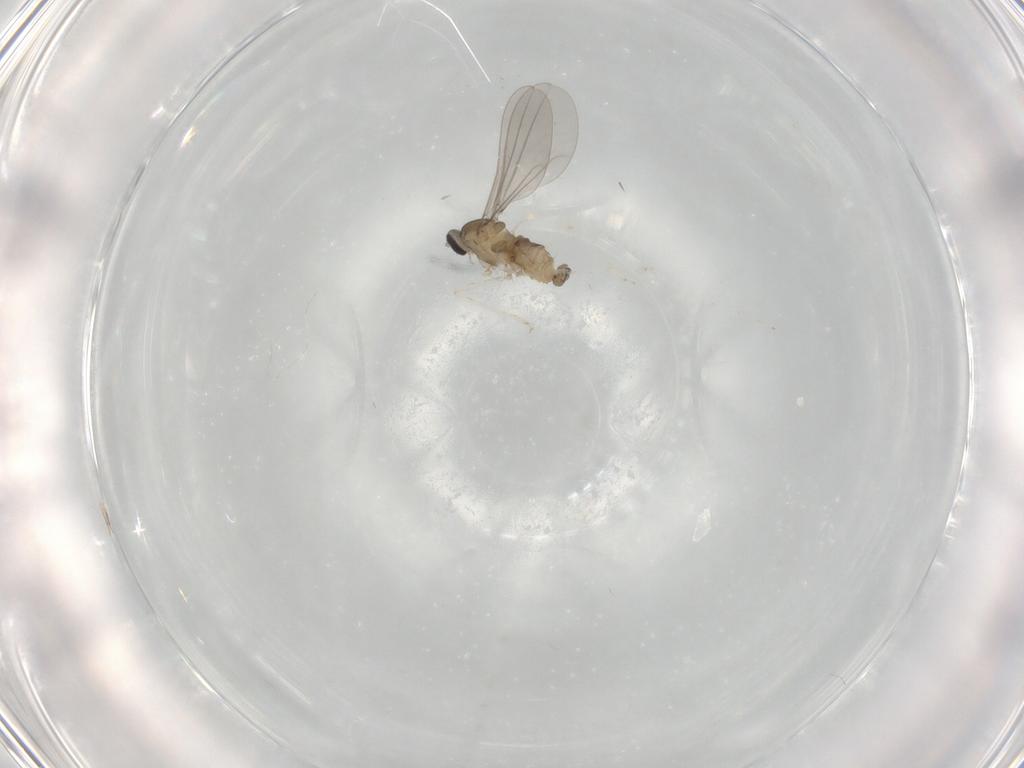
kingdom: Animalia
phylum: Arthropoda
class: Insecta
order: Diptera
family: Cecidomyiidae
